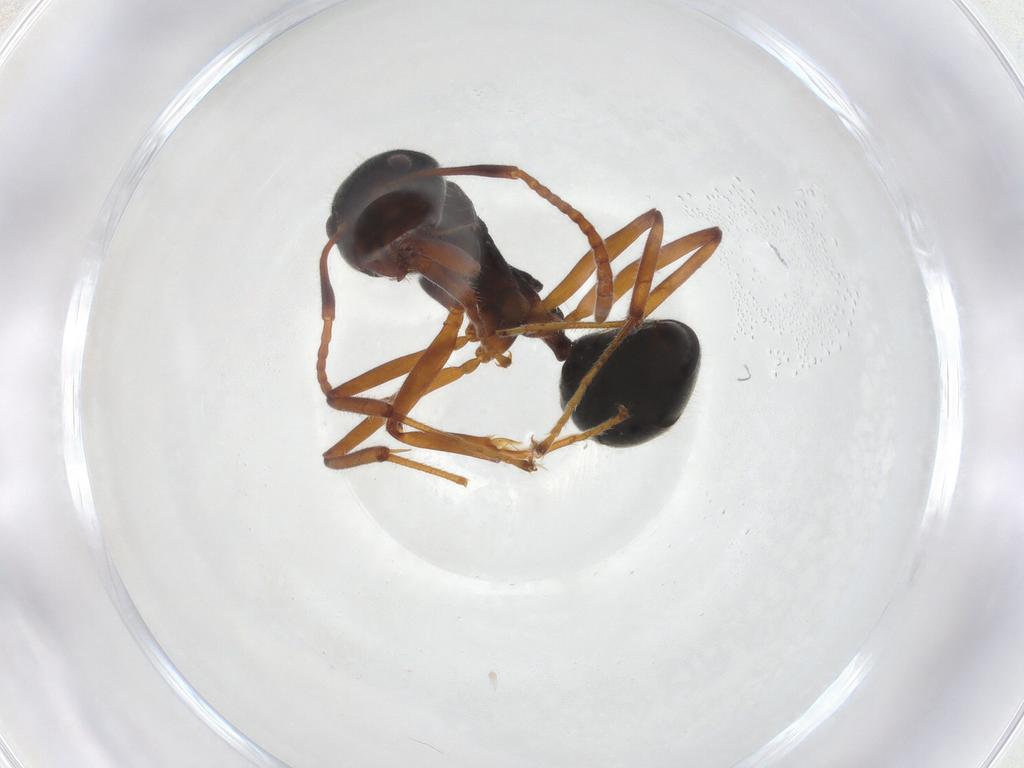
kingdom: Animalia
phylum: Arthropoda
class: Insecta
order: Hymenoptera
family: Formicidae
